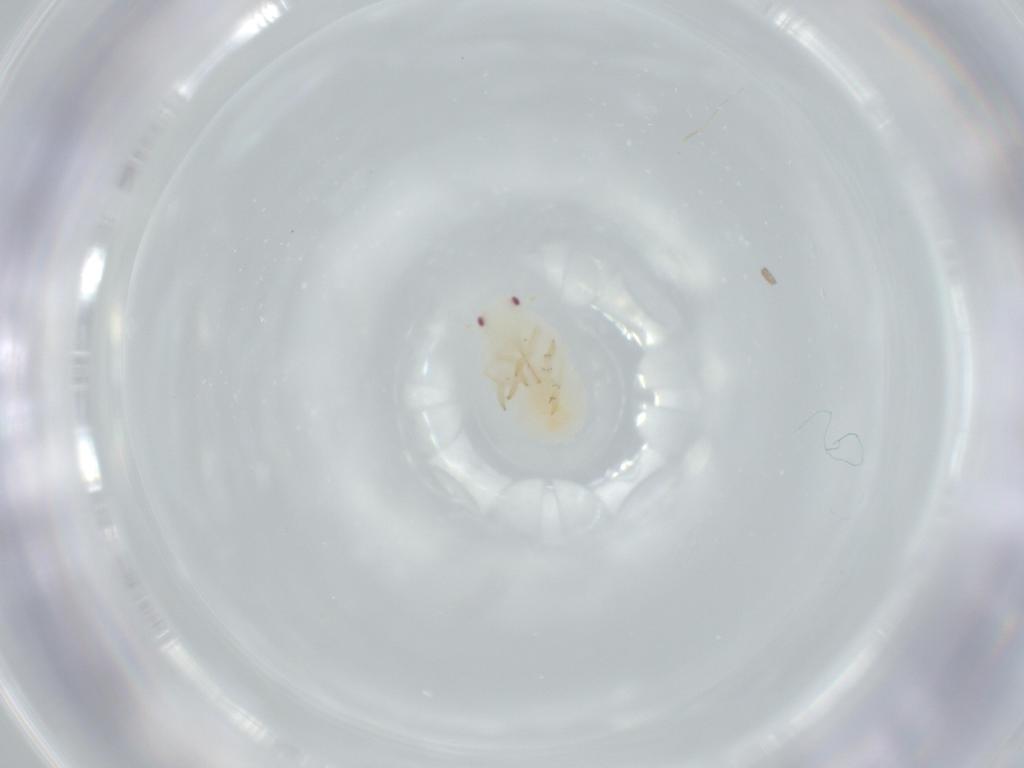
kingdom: Animalia
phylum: Arthropoda
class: Insecta
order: Hemiptera
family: Flatidae
